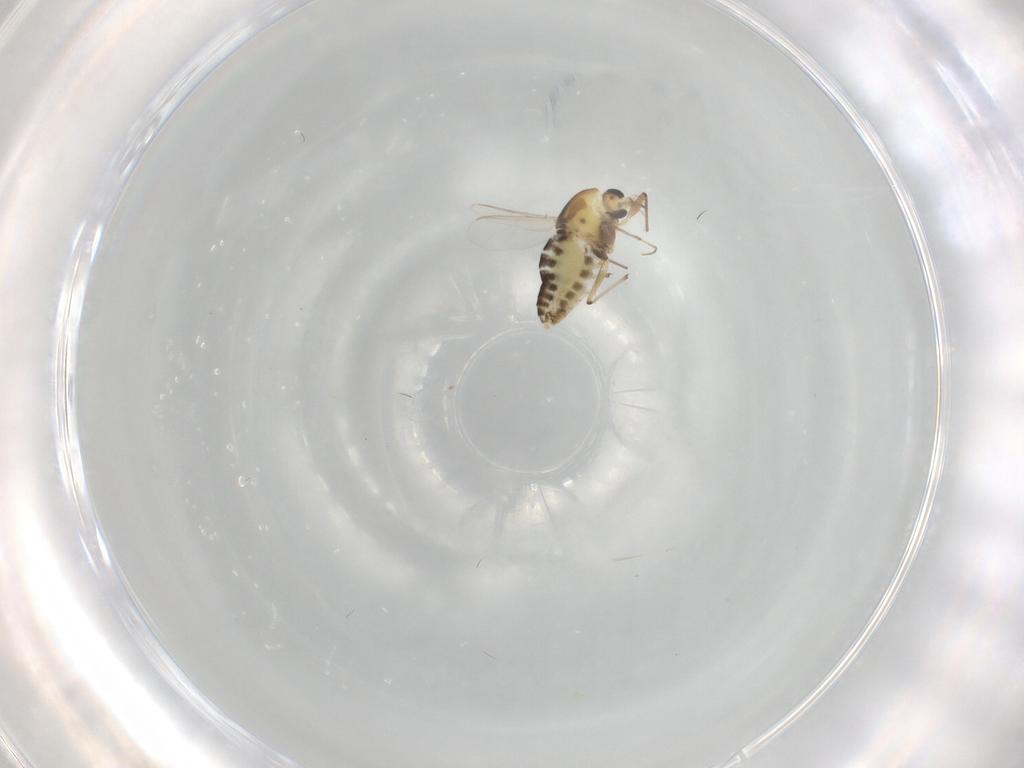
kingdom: Animalia
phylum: Arthropoda
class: Insecta
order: Diptera
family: Chironomidae
